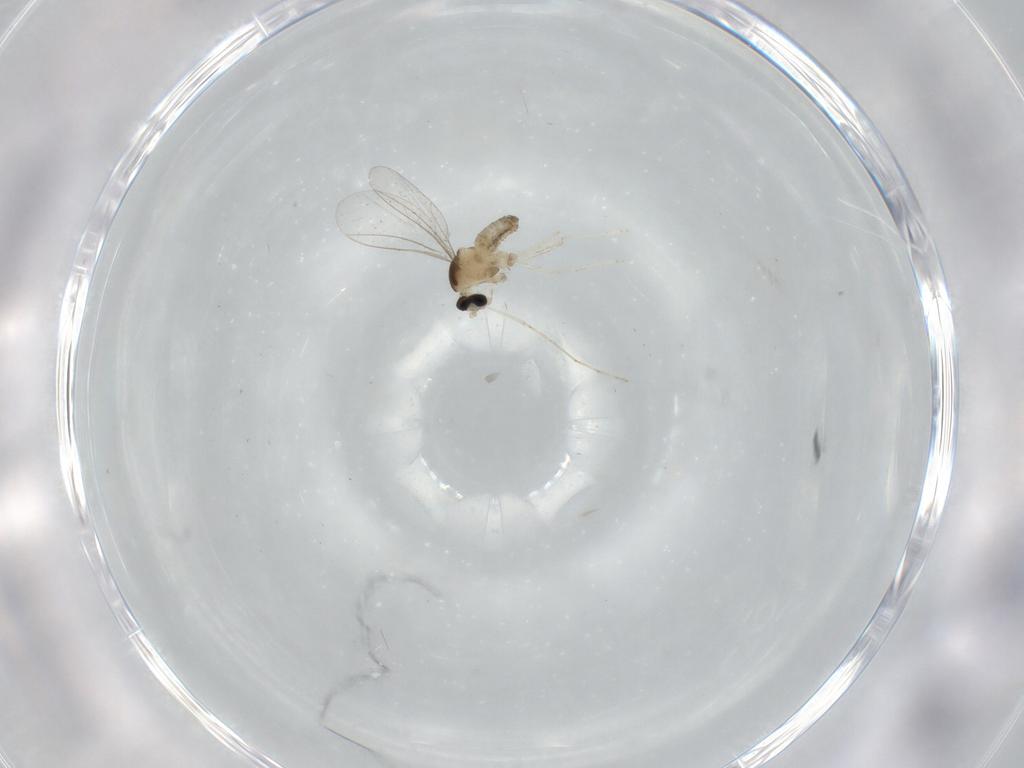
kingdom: Animalia
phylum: Arthropoda
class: Insecta
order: Diptera
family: Cecidomyiidae
